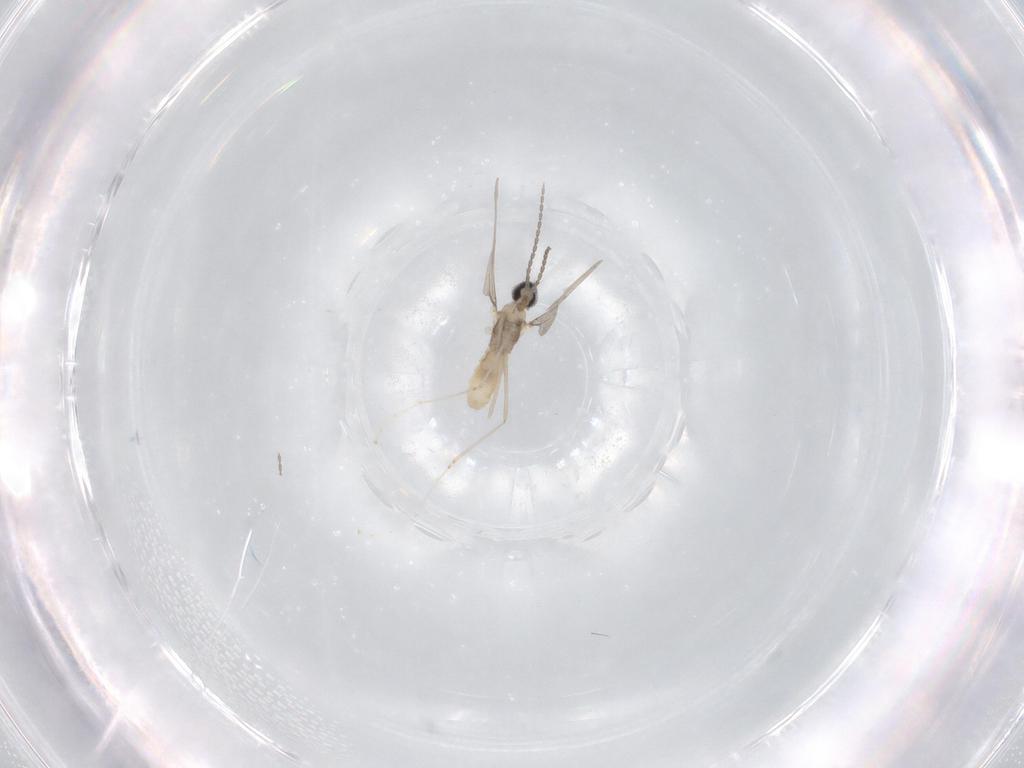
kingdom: Animalia
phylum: Arthropoda
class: Insecta
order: Diptera
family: Cecidomyiidae
